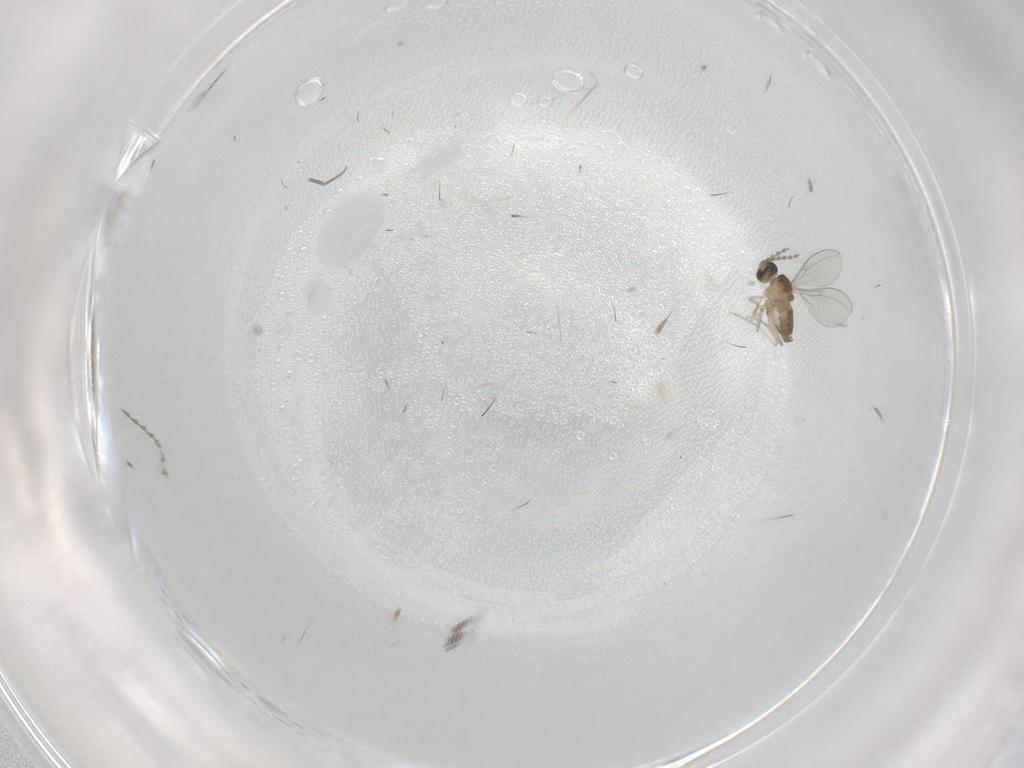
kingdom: Animalia
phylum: Arthropoda
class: Insecta
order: Diptera
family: Cecidomyiidae
